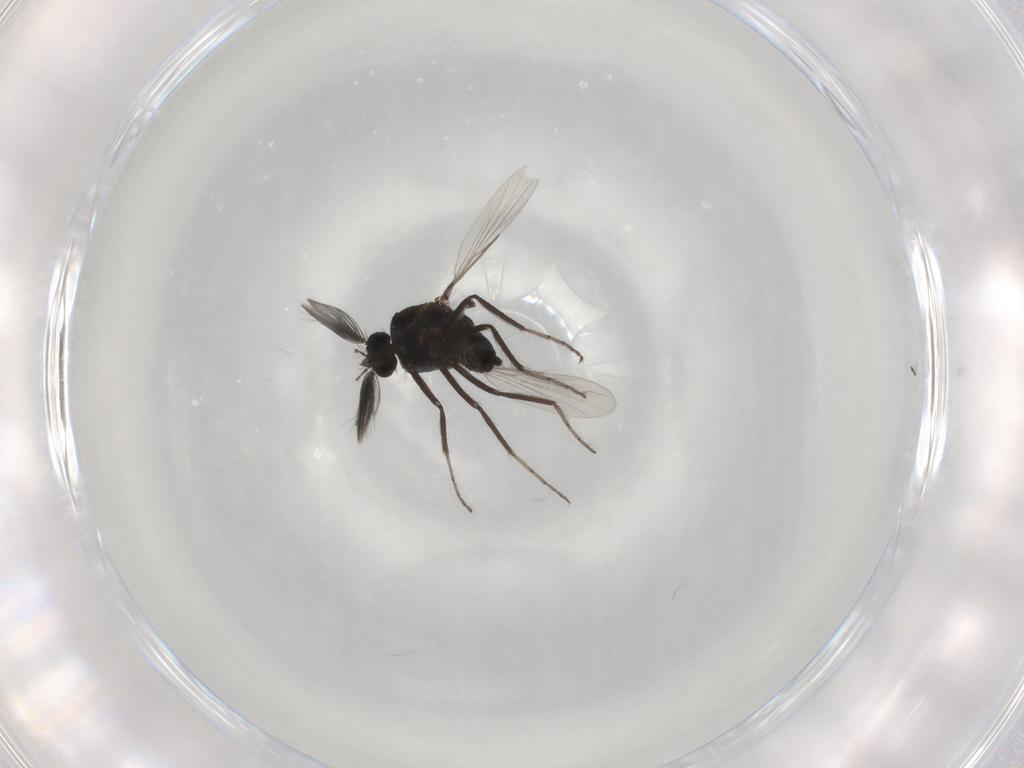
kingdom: Animalia
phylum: Arthropoda
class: Insecta
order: Diptera
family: Ceratopogonidae
